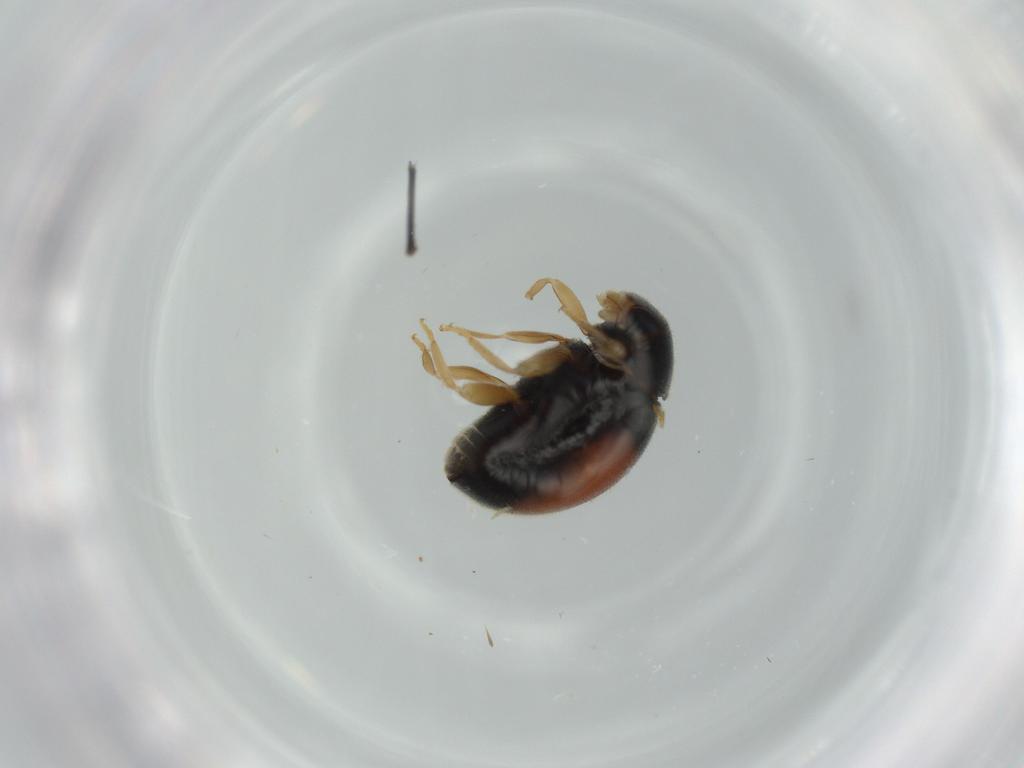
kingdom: Animalia
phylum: Arthropoda
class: Insecta
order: Coleoptera
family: Coccinellidae
